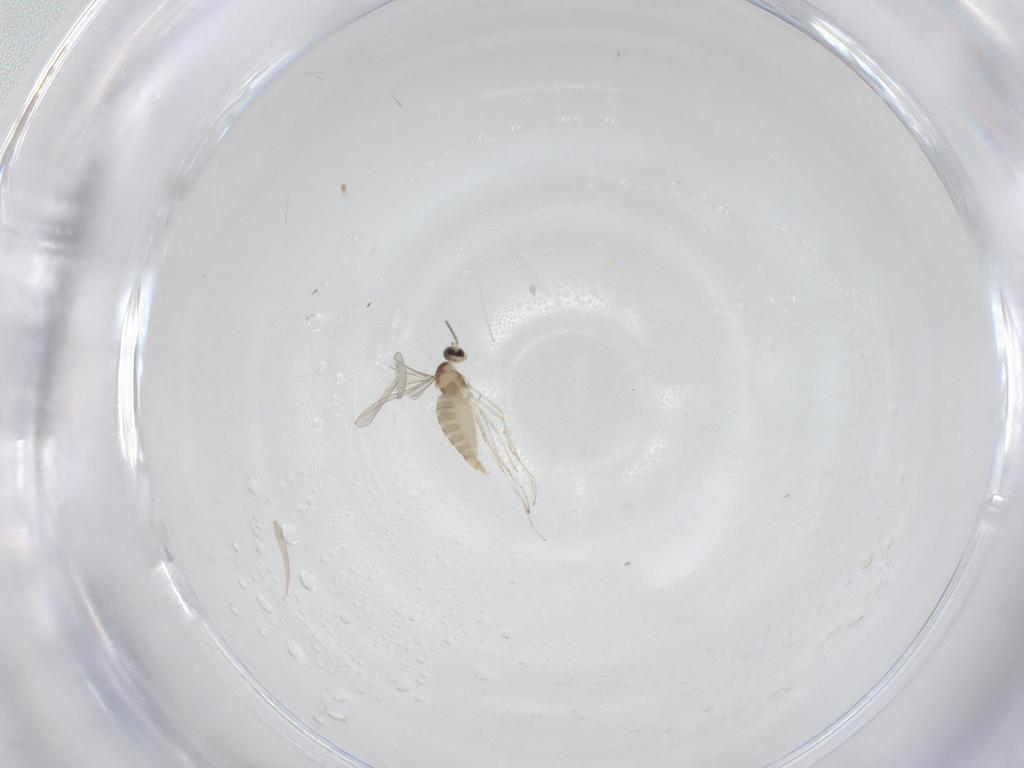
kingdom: Animalia
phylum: Arthropoda
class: Insecta
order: Diptera
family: Cecidomyiidae
